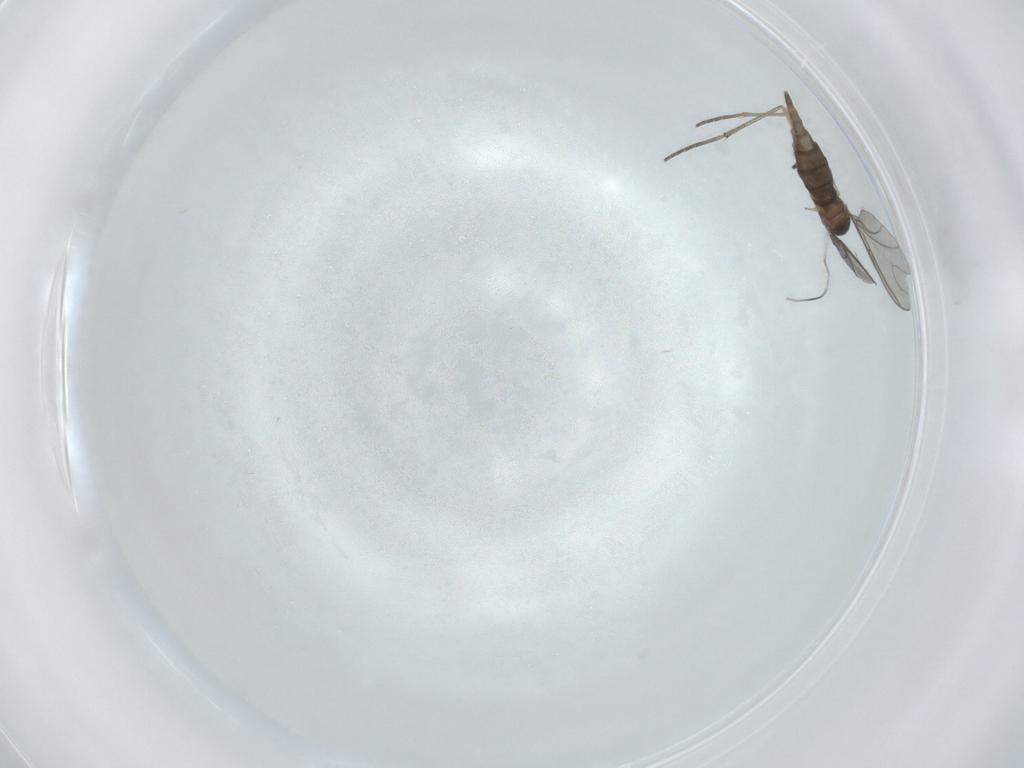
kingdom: Animalia
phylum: Arthropoda
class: Insecta
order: Diptera
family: Sciaridae
